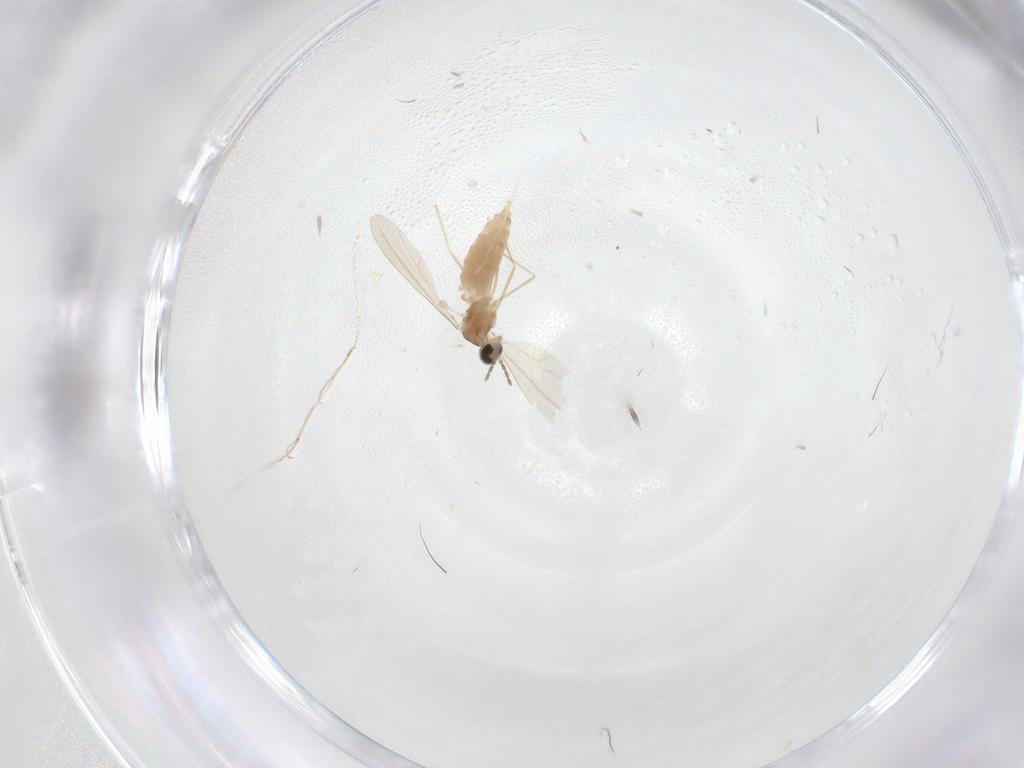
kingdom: Animalia
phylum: Arthropoda
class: Insecta
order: Diptera
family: Cecidomyiidae
